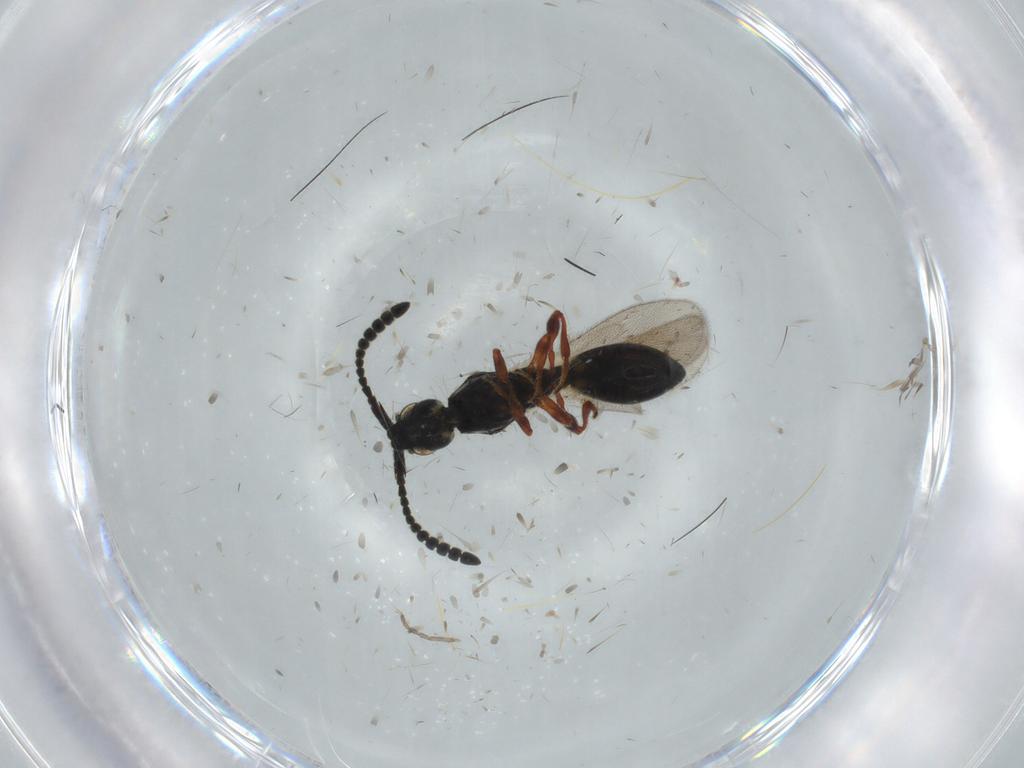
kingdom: Animalia
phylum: Arthropoda
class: Insecta
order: Hymenoptera
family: Diapriidae
